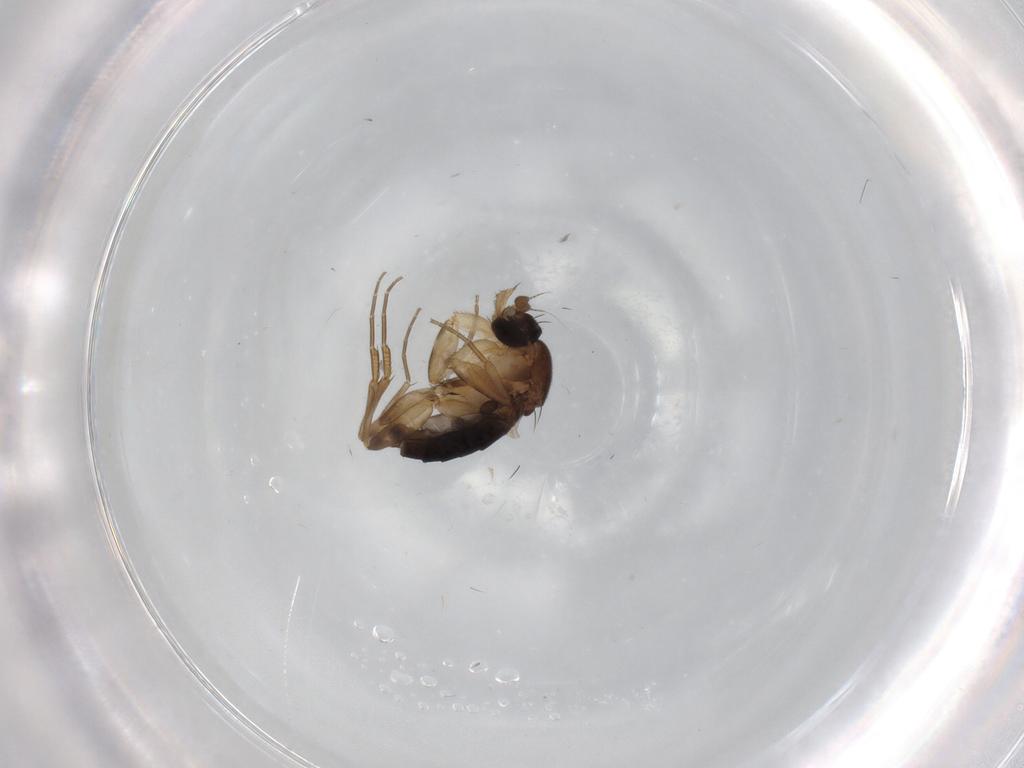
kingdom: Animalia
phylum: Arthropoda
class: Insecta
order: Diptera
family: Phoridae
